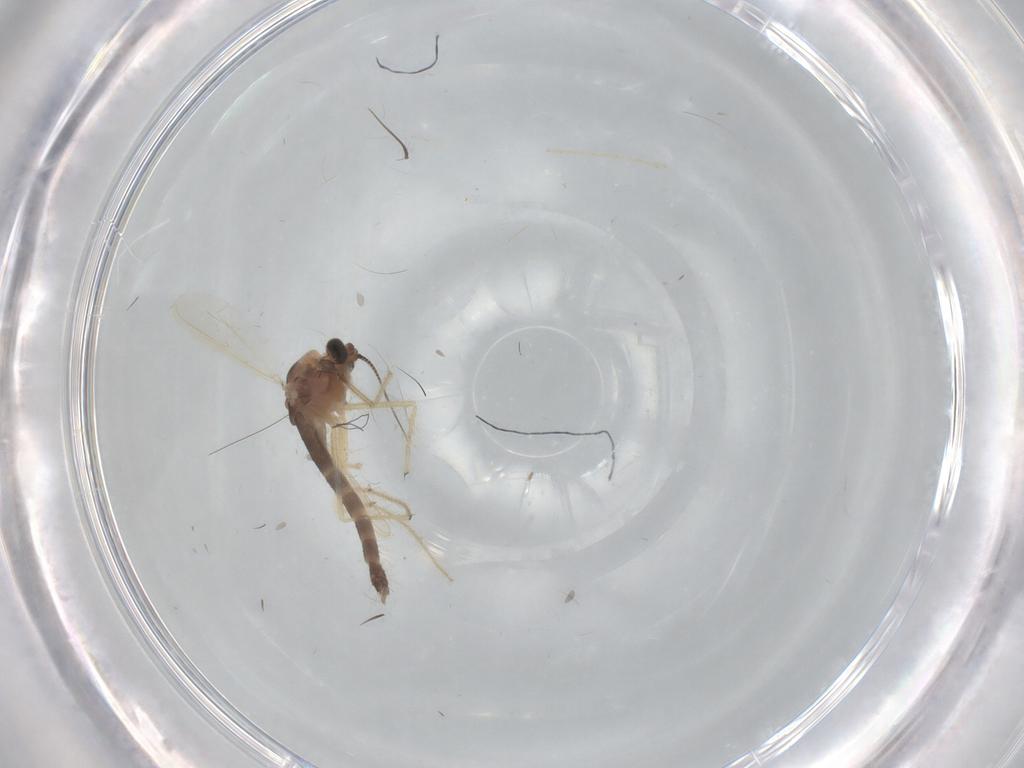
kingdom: Animalia
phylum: Arthropoda
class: Insecta
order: Diptera
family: Chironomidae
